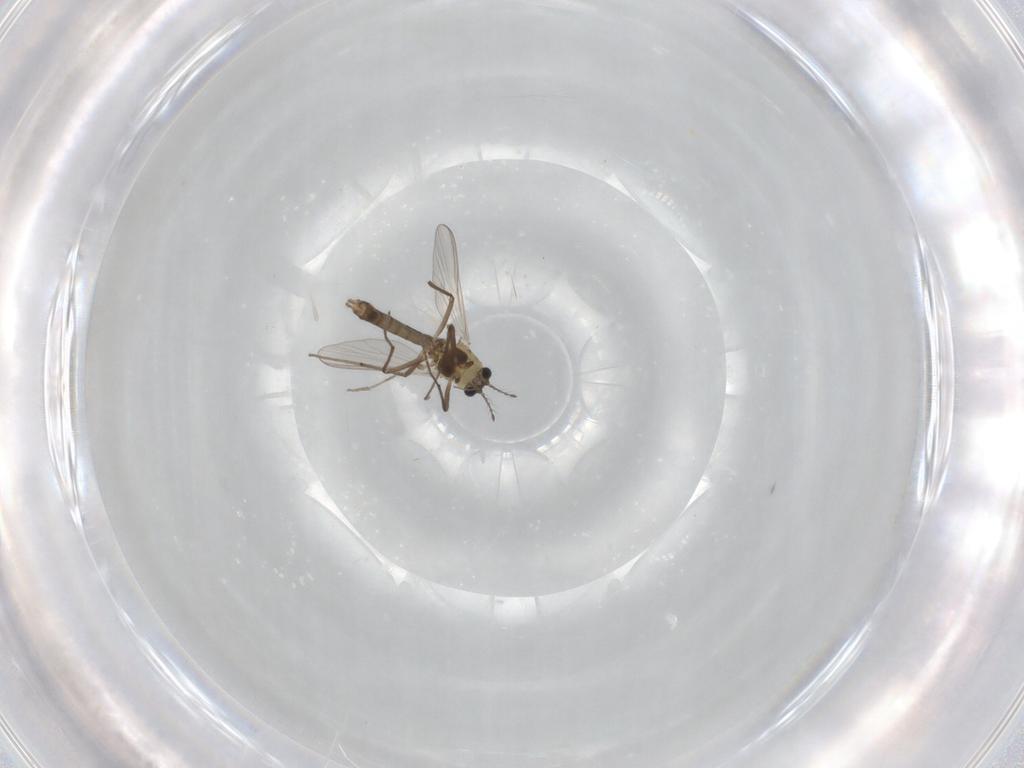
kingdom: Animalia
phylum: Arthropoda
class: Insecta
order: Diptera
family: Chironomidae
